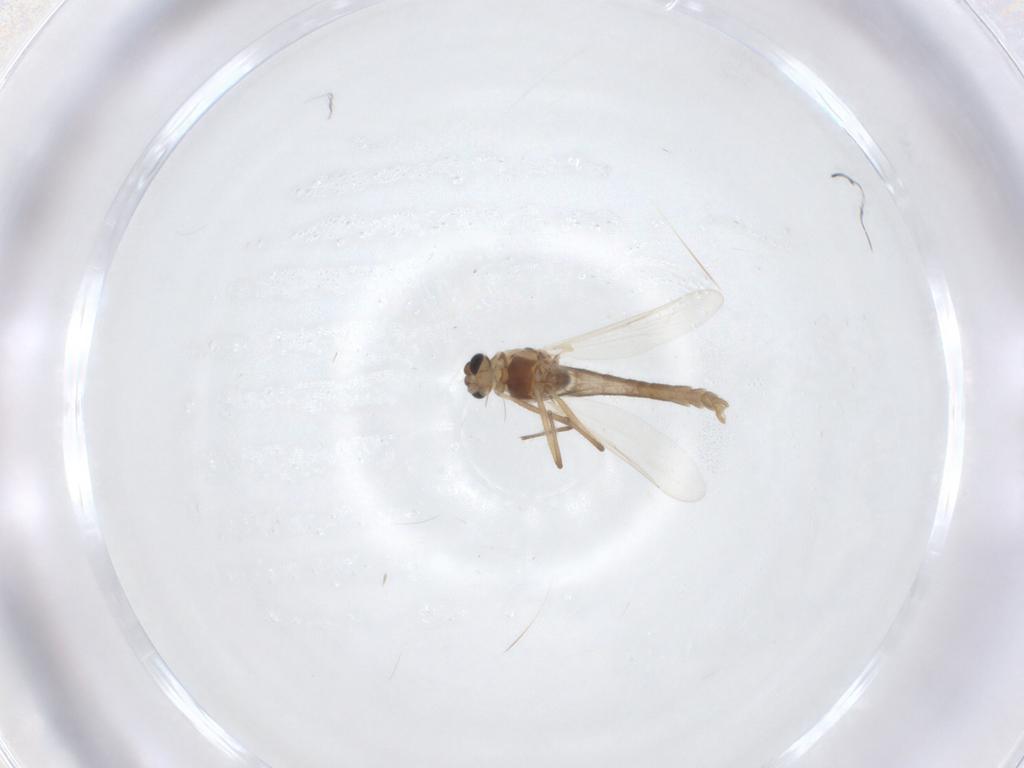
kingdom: Animalia
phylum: Arthropoda
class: Insecta
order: Diptera
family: Chironomidae
